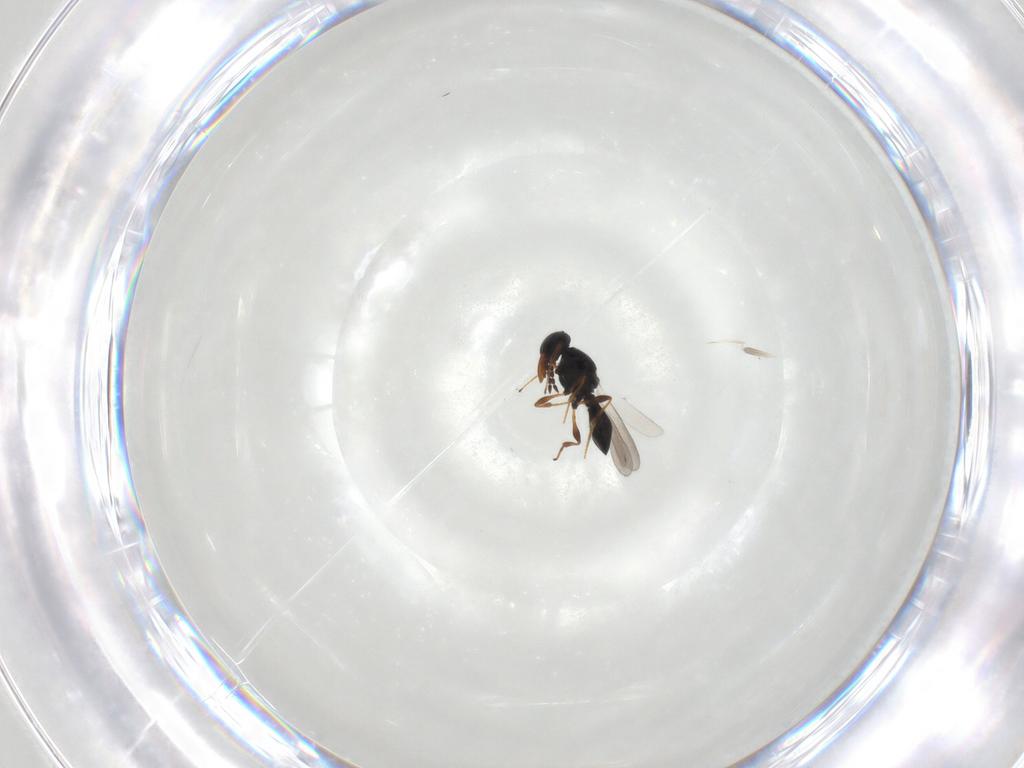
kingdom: Animalia
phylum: Arthropoda
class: Insecta
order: Hymenoptera
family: Platygastridae
